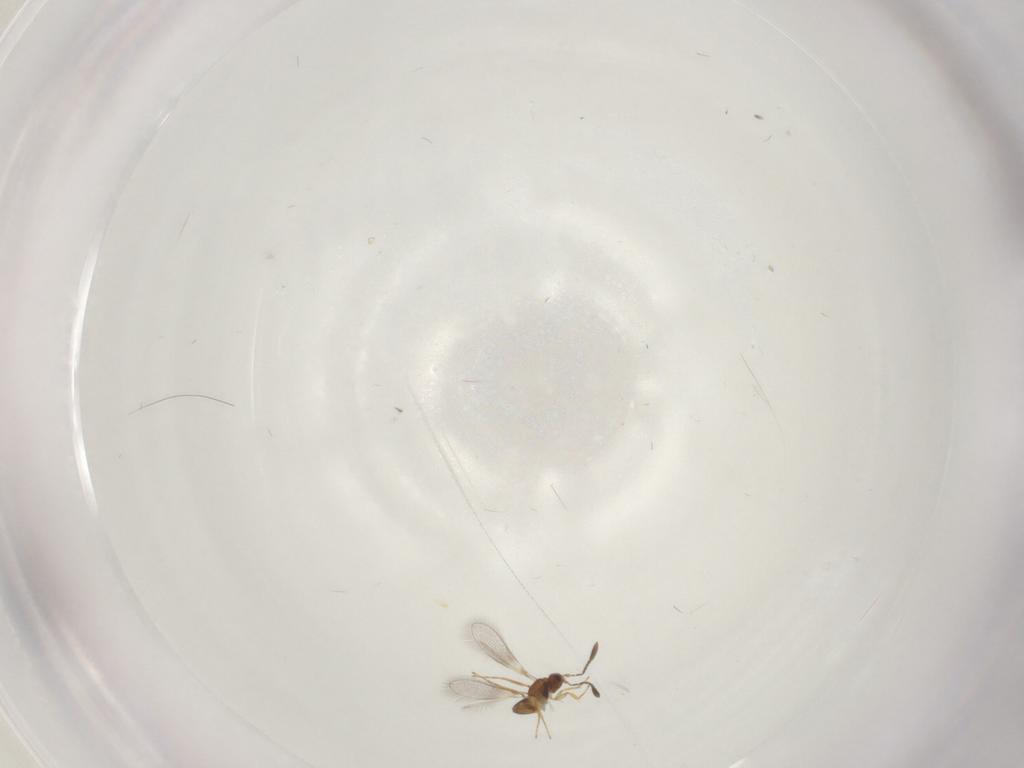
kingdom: Animalia
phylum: Arthropoda
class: Insecta
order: Hymenoptera
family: Mymaridae
